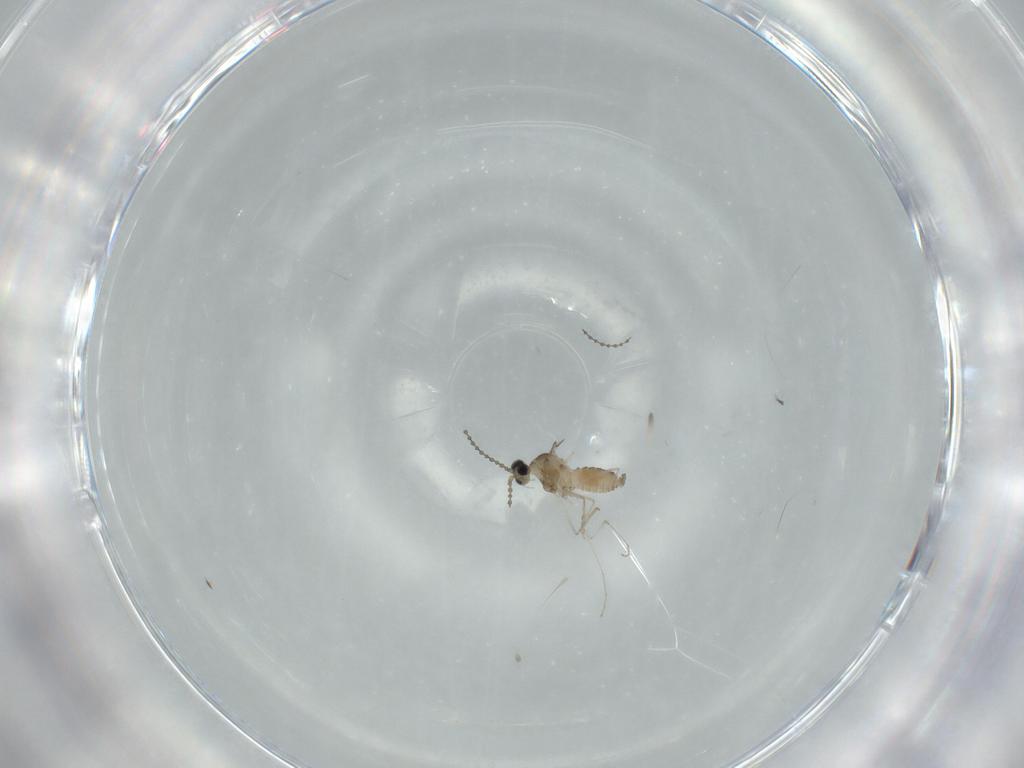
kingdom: Animalia
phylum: Arthropoda
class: Insecta
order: Diptera
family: Cecidomyiidae
